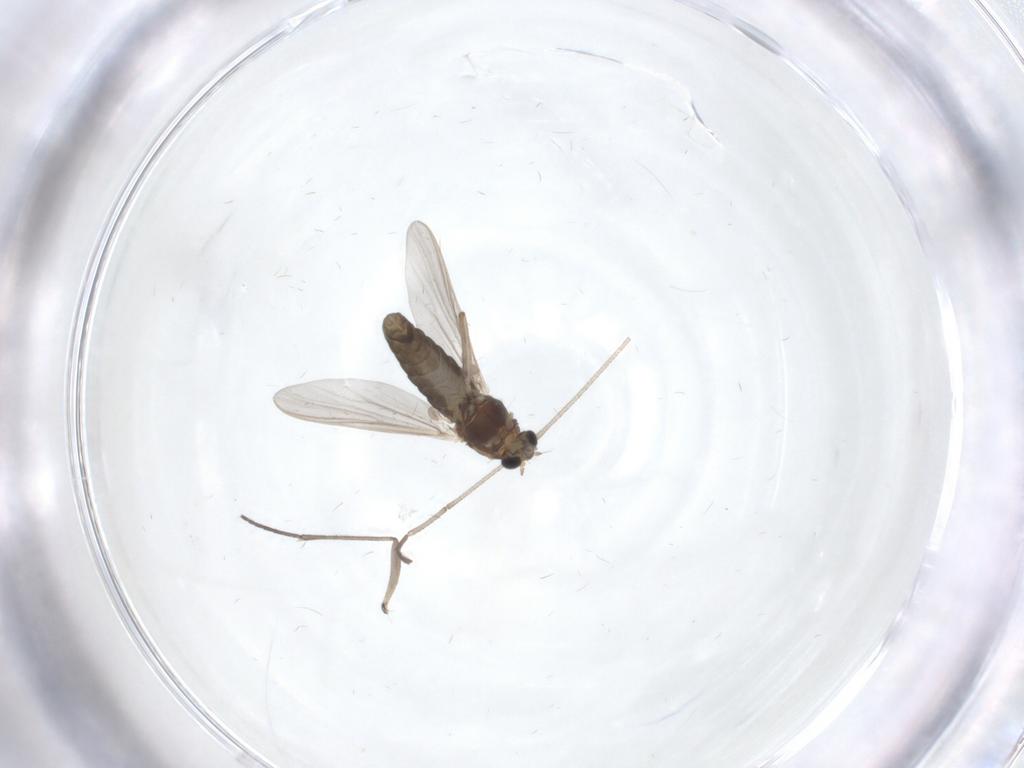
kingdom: Animalia
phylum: Arthropoda
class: Insecta
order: Diptera
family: Chironomidae
